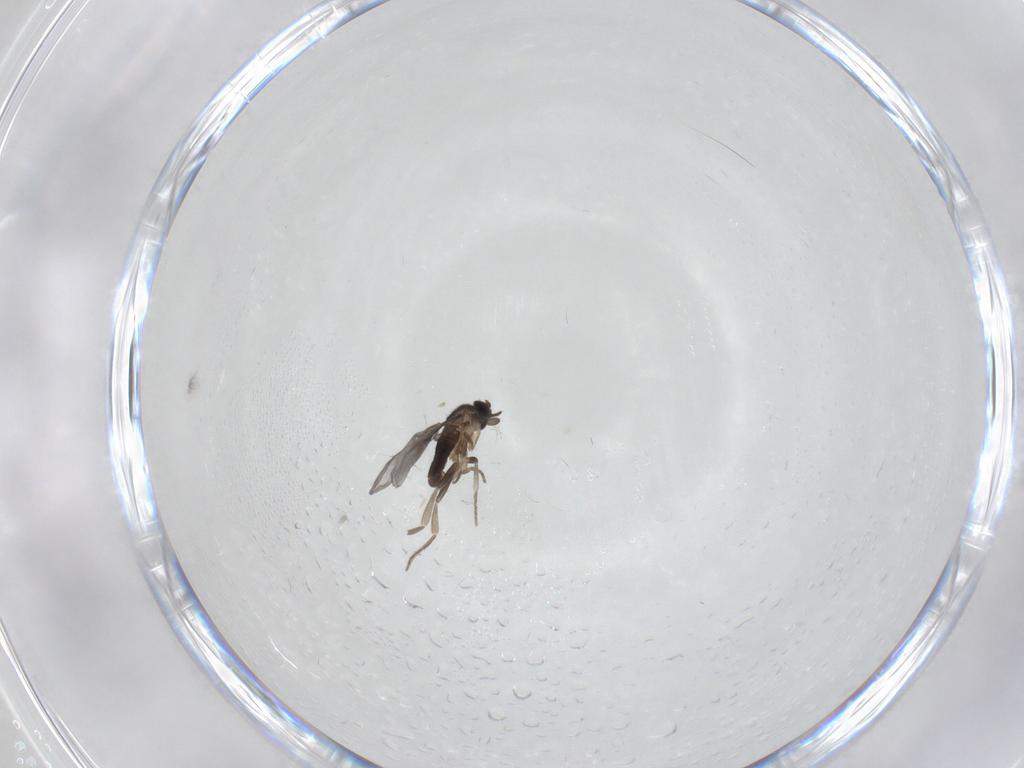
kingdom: Animalia
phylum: Arthropoda
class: Insecta
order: Diptera
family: Chironomidae
